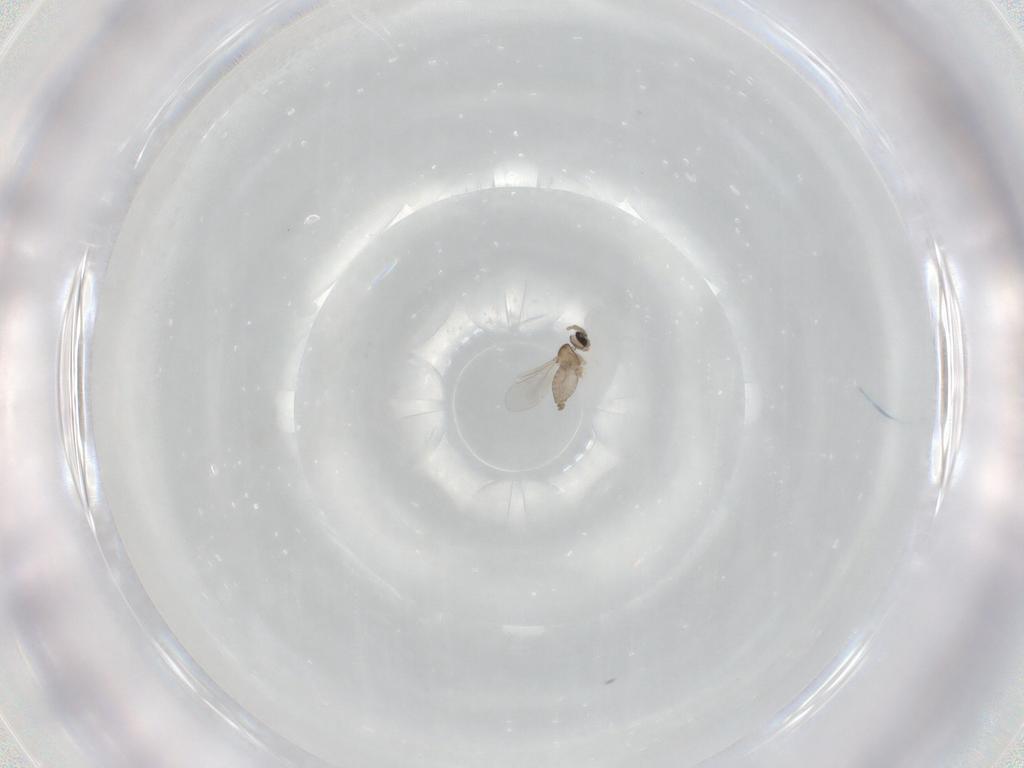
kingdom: Animalia
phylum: Arthropoda
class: Insecta
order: Diptera
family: Cecidomyiidae
